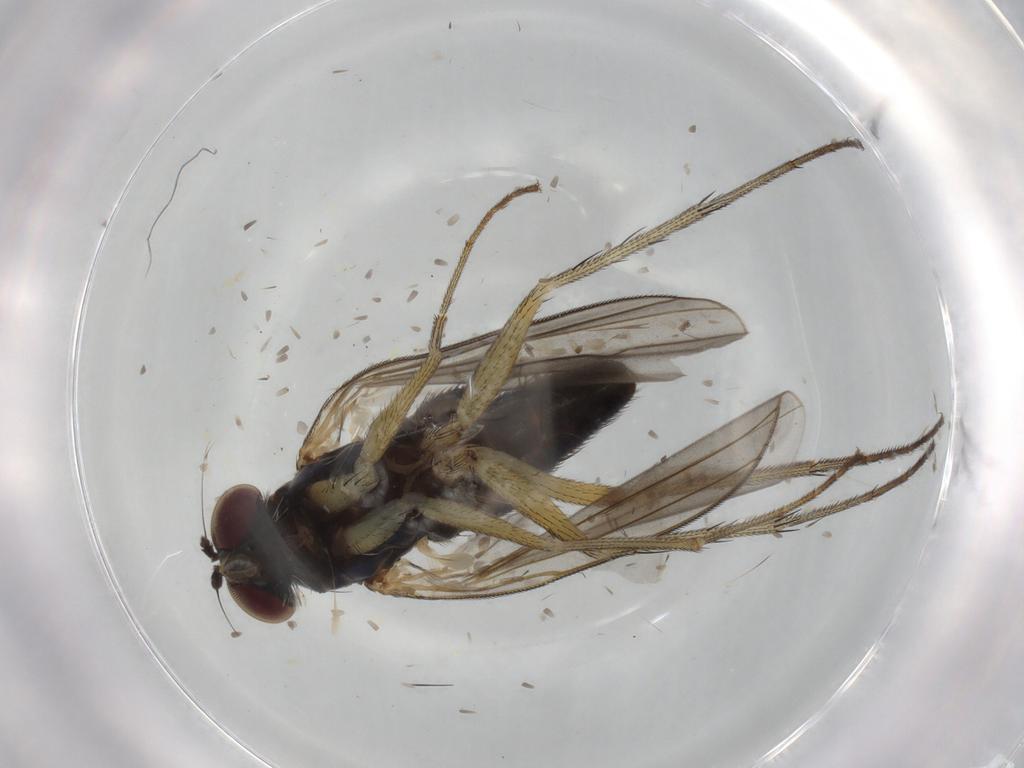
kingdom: Animalia
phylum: Arthropoda
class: Insecta
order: Diptera
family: Dolichopodidae
